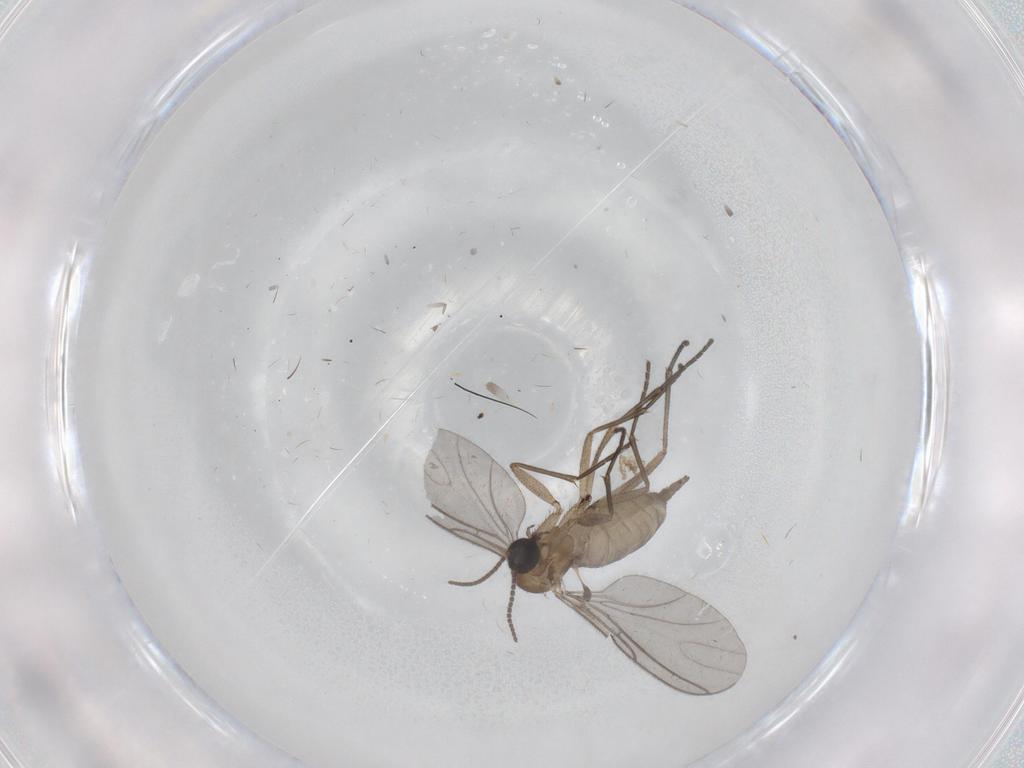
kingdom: Animalia
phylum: Arthropoda
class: Insecta
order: Diptera
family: Sciaridae
